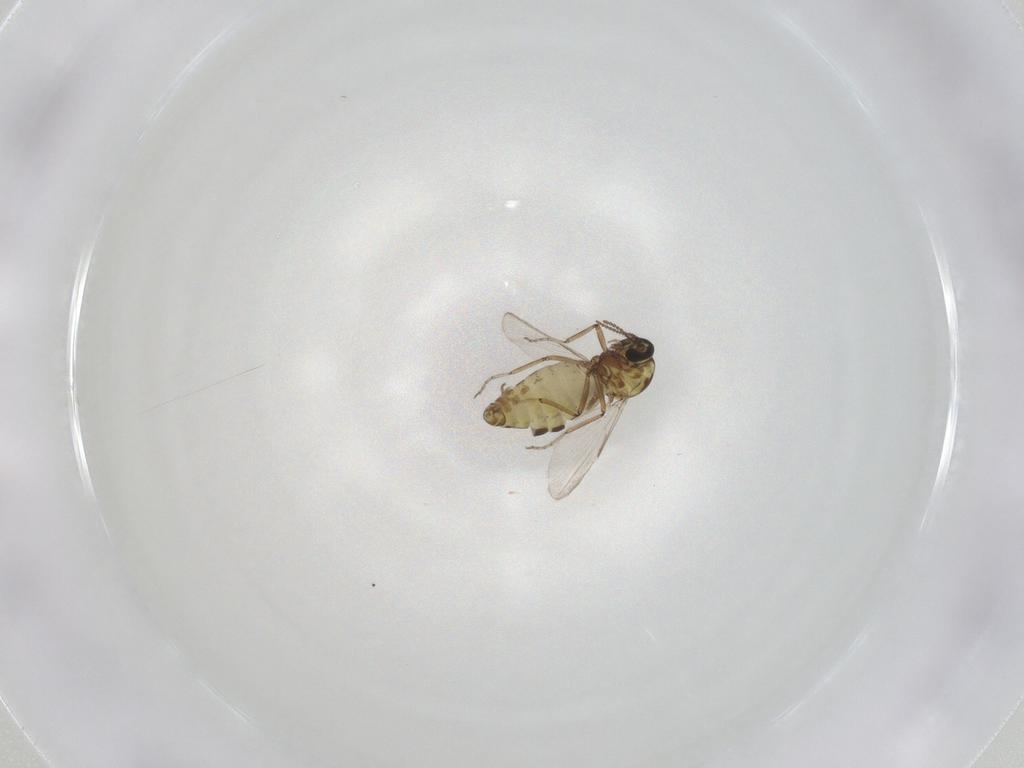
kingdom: Animalia
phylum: Arthropoda
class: Insecta
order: Diptera
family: Ceratopogonidae
